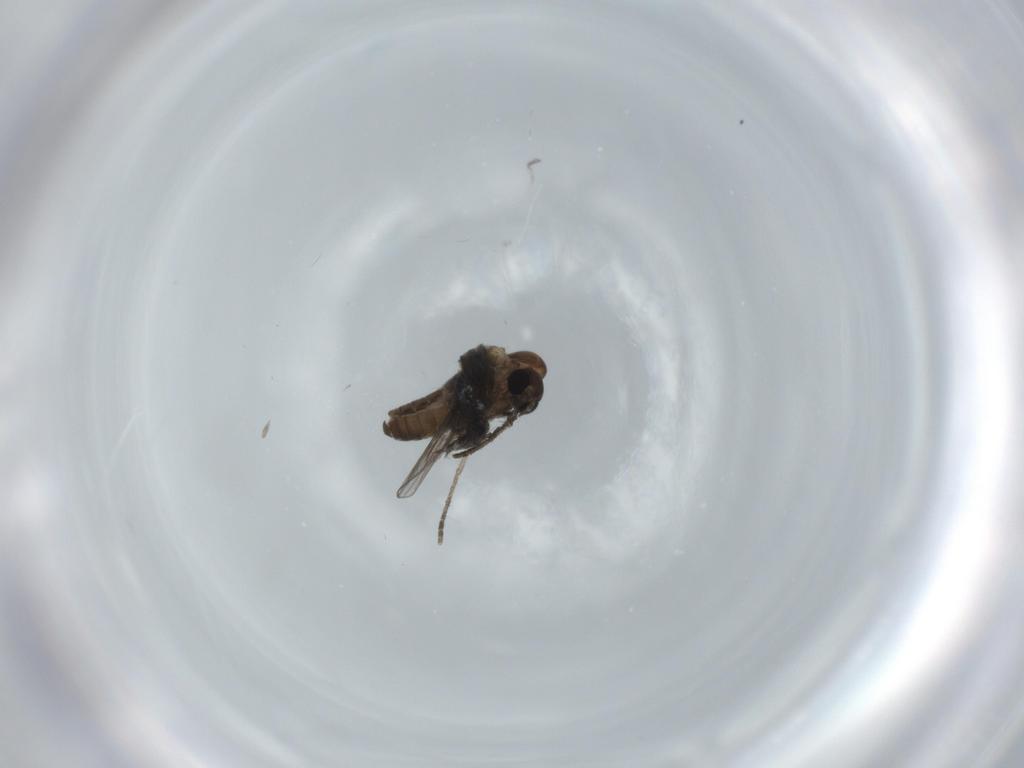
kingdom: Animalia
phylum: Arthropoda
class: Insecta
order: Diptera
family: Psychodidae
